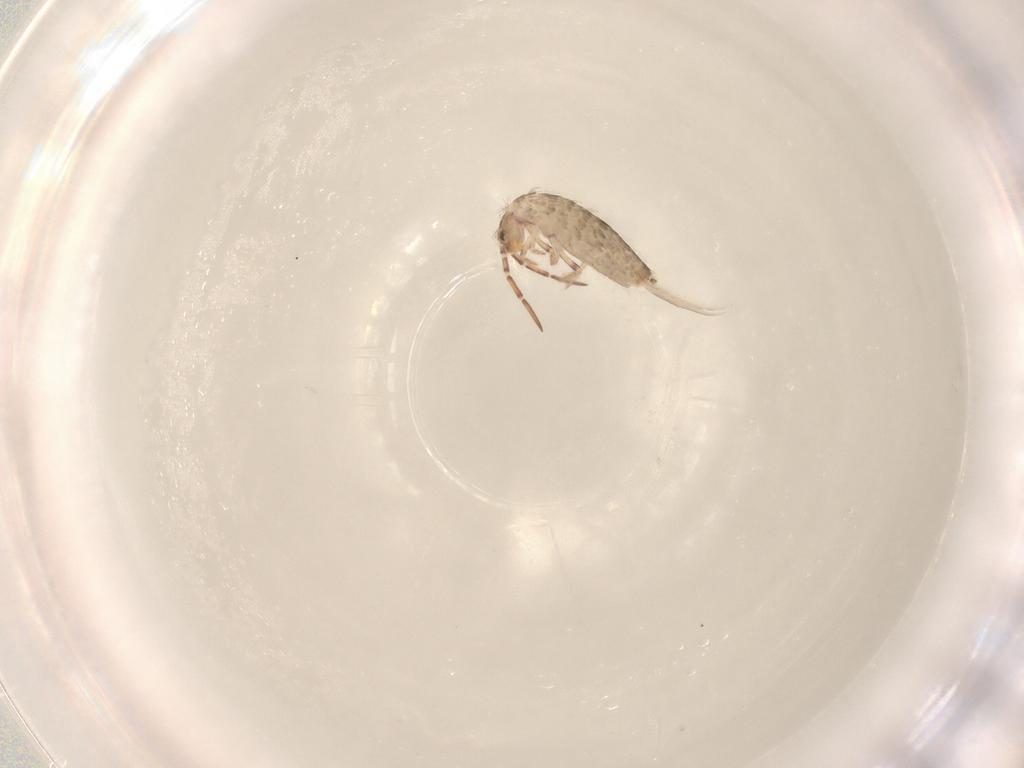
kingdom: Animalia
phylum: Arthropoda
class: Collembola
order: Entomobryomorpha
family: Entomobryidae
